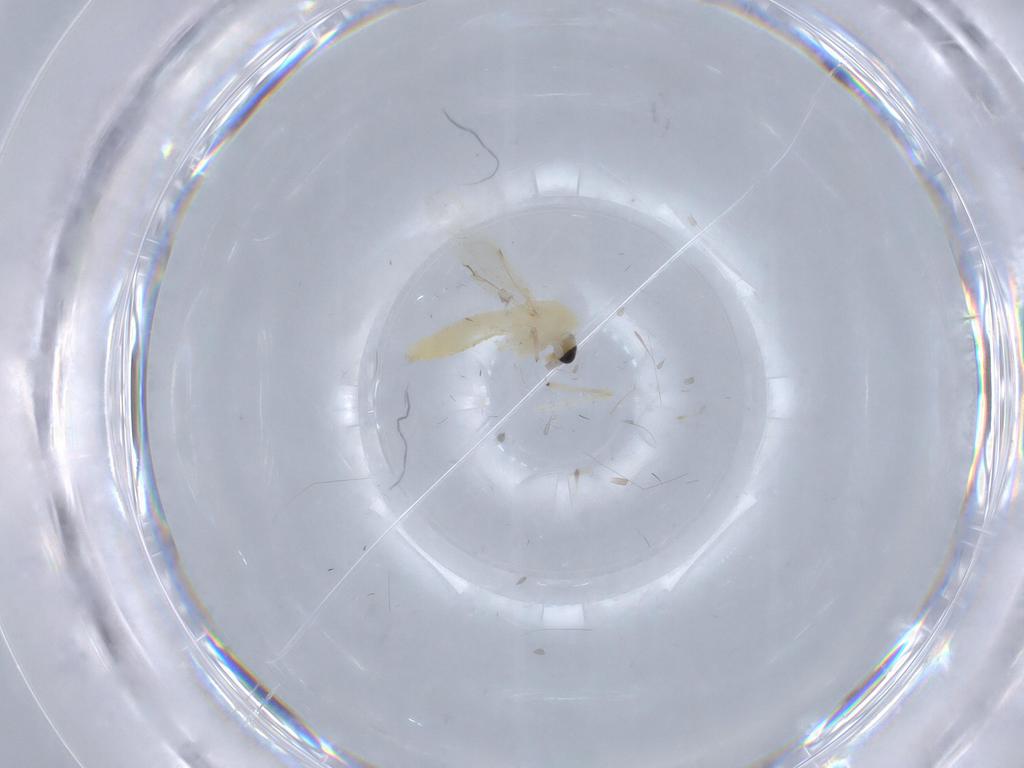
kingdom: Animalia
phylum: Arthropoda
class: Insecta
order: Diptera
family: Chironomidae
